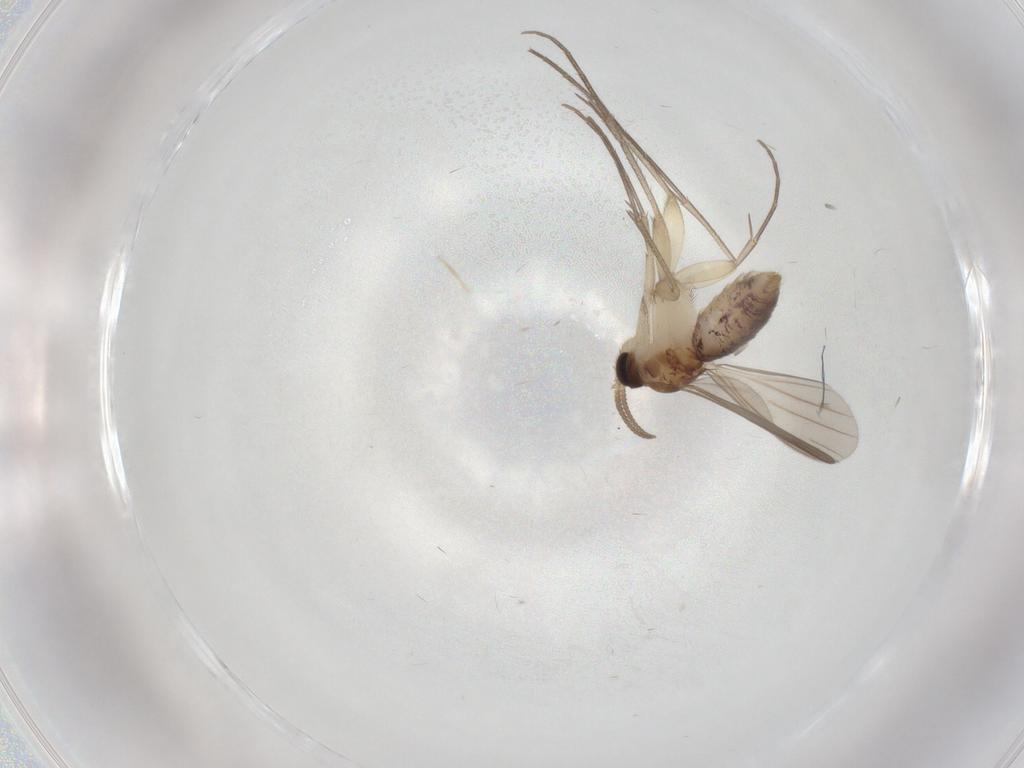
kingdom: Animalia
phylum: Arthropoda
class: Insecta
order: Diptera
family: Mycetophilidae
